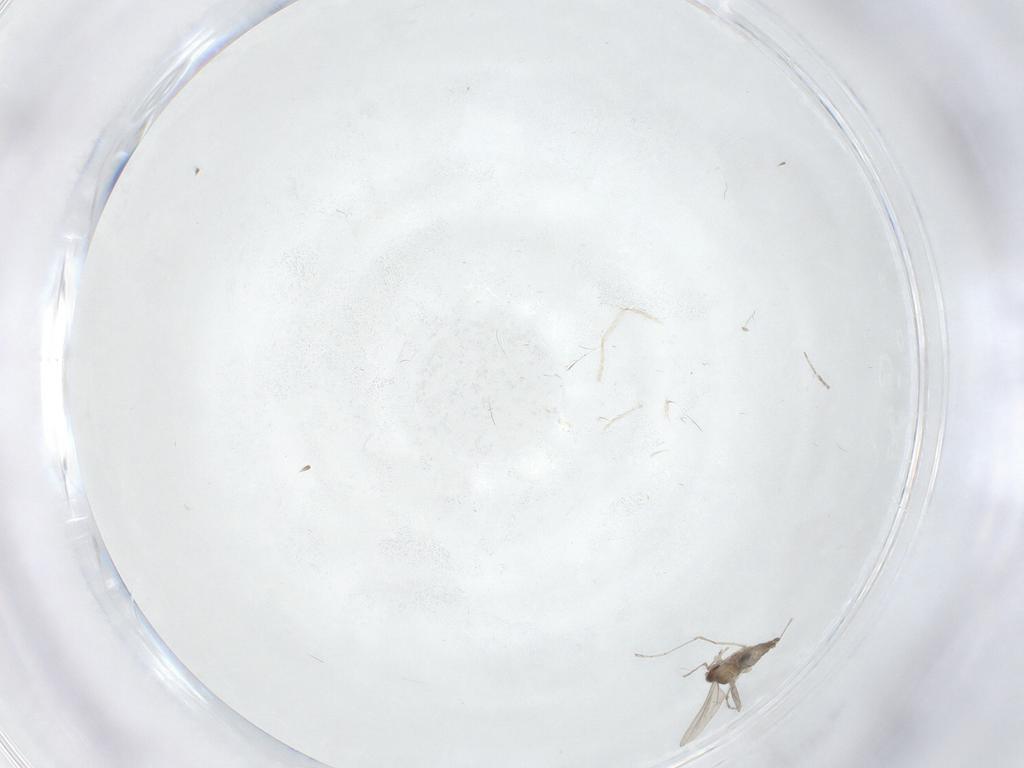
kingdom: Animalia
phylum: Arthropoda
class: Insecta
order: Diptera
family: Cecidomyiidae
